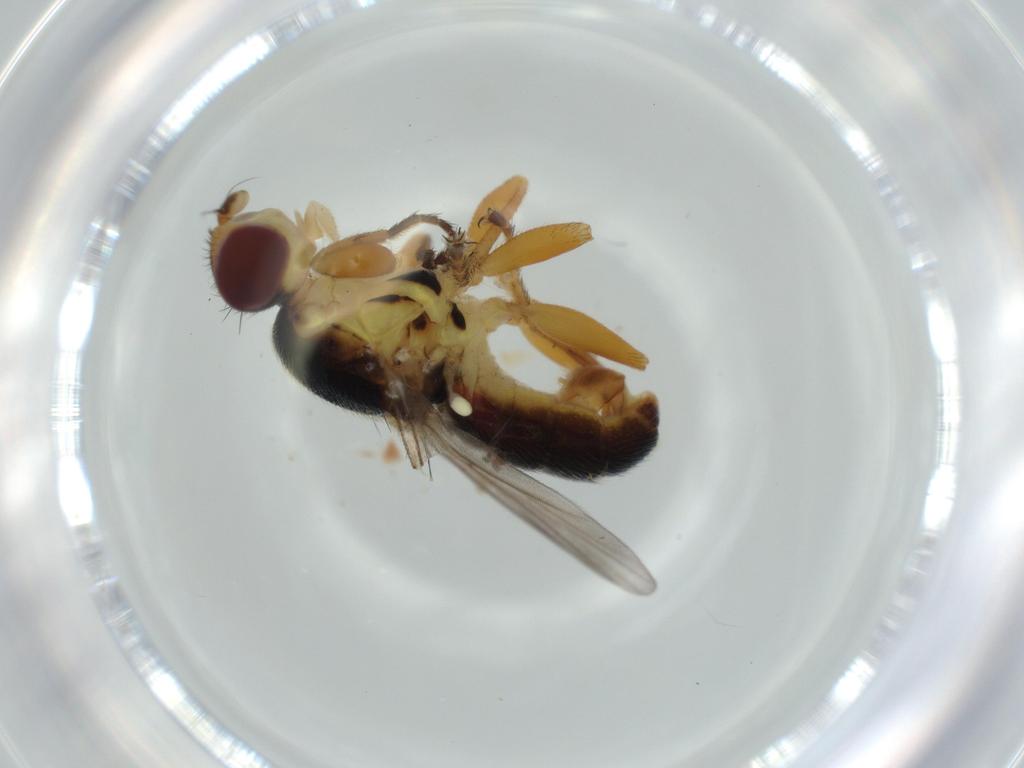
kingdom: Animalia
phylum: Arthropoda
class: Insecta
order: Diptera
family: Chloropidae
